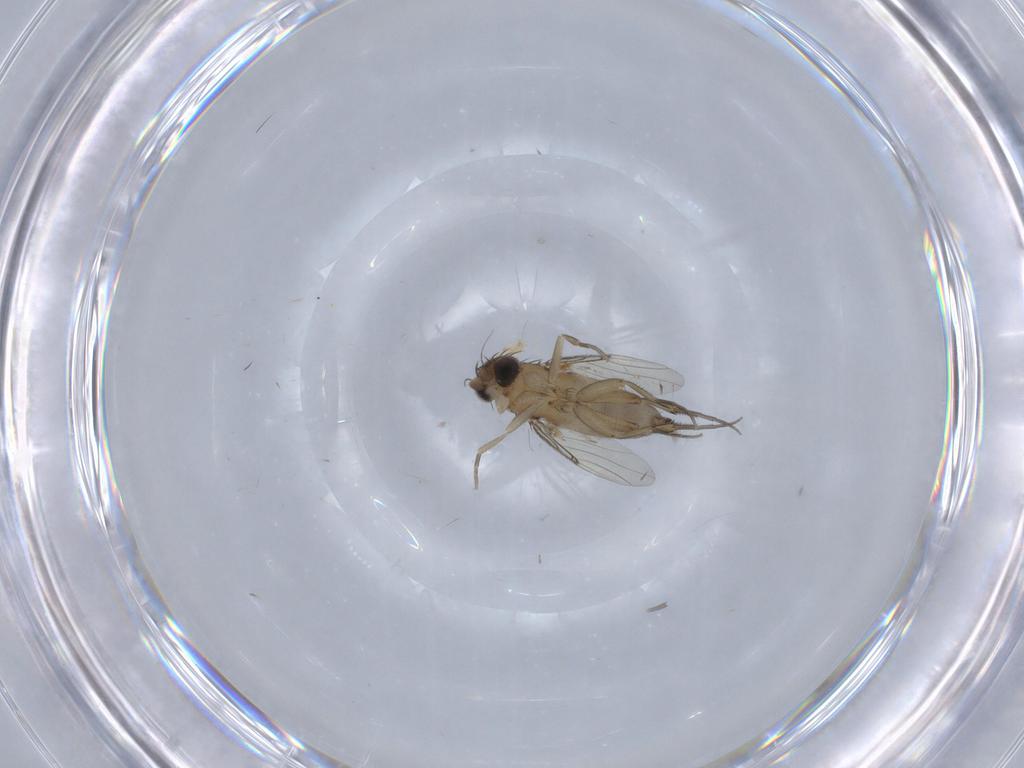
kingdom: Animalia
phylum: Arthropoda
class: Insecta
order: Diptera
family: Phoridae
